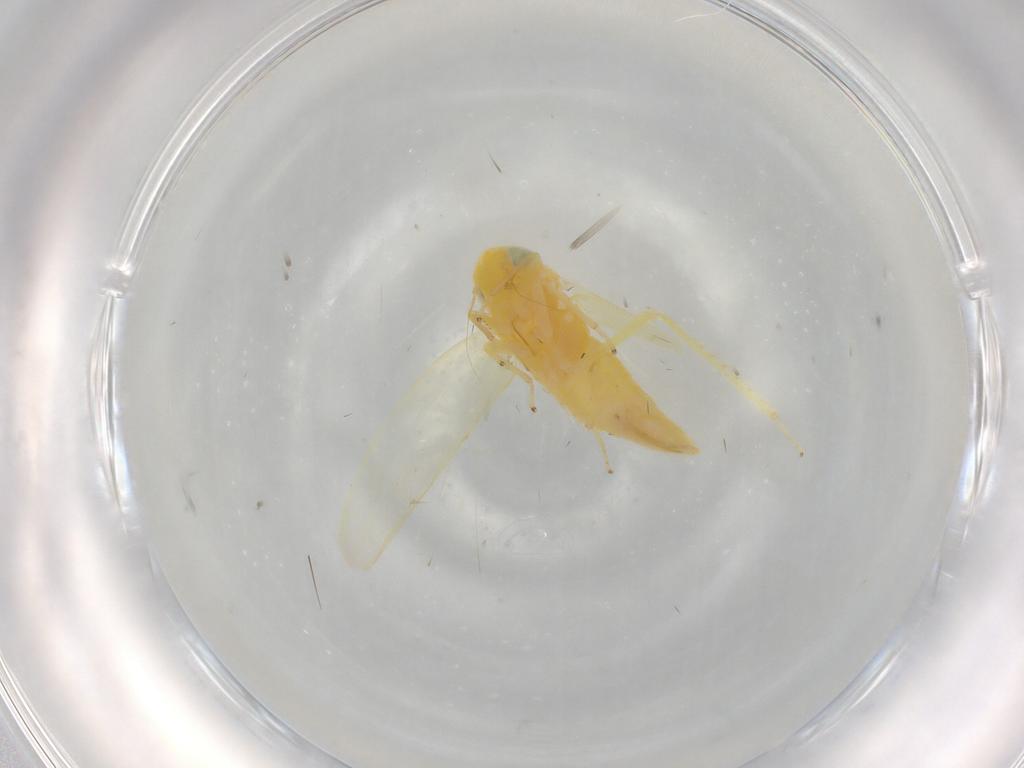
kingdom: Animalia
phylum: Arthropoda
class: Insecta
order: Hemiptera
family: Cicadellidae
